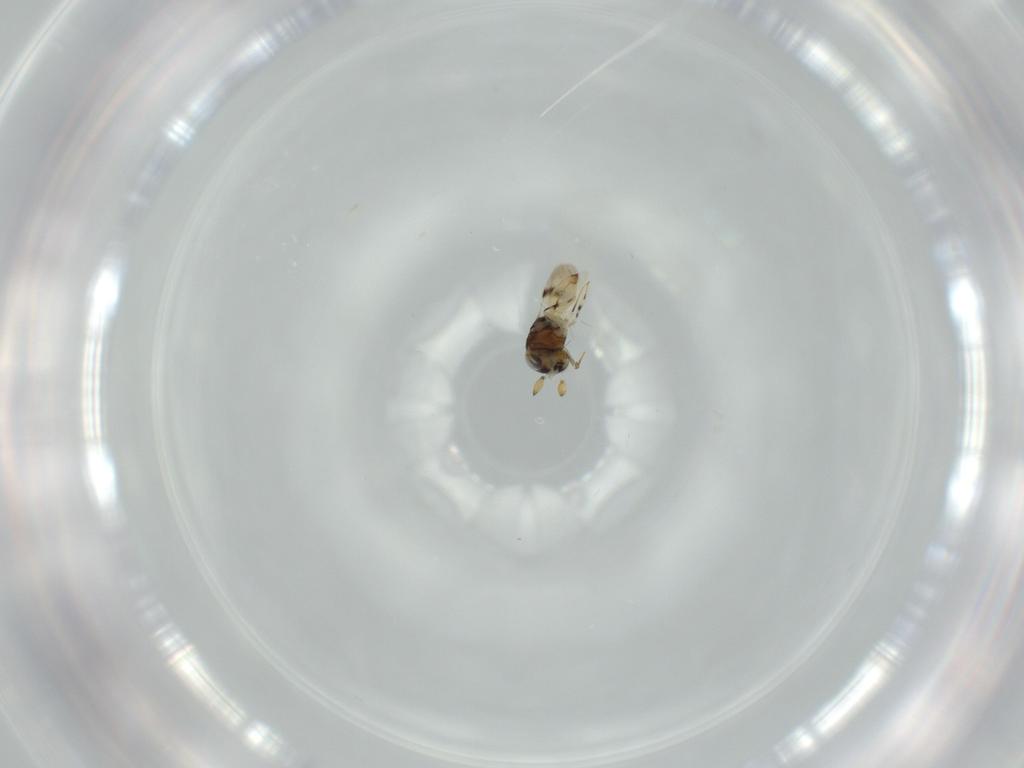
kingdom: Animalia
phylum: Arthropoda
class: Insecta
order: Hymenoptera
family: Scelionidae
